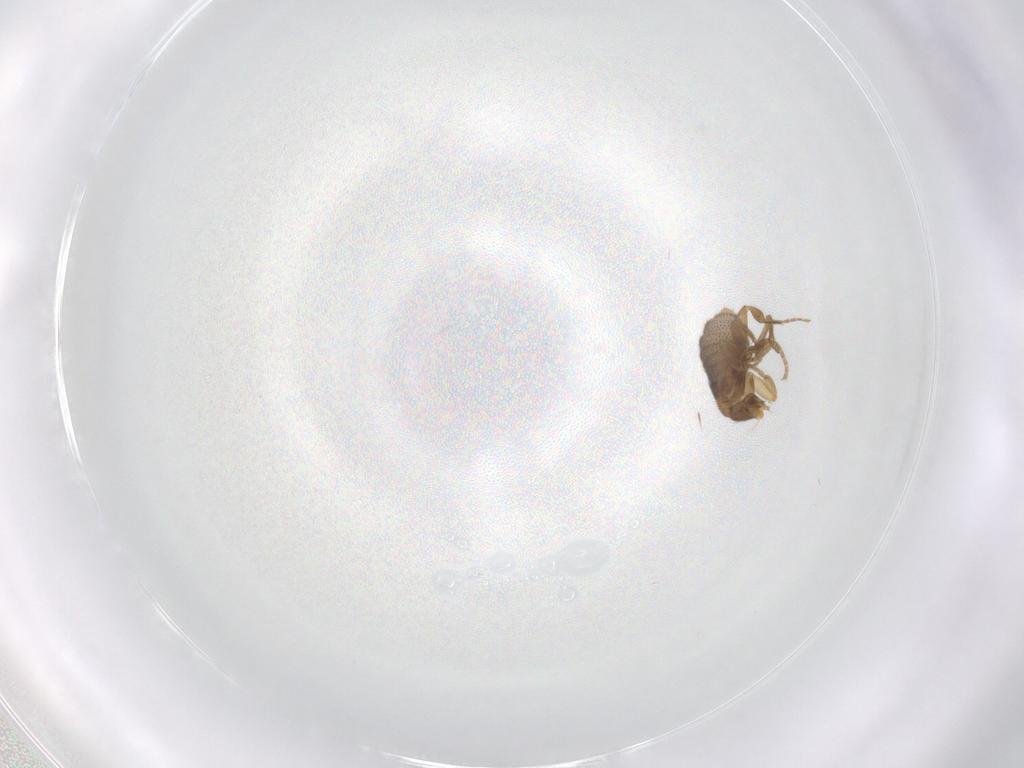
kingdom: Animalia
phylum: Arthropoda
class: Insecta
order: Diptera
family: Phoridae
